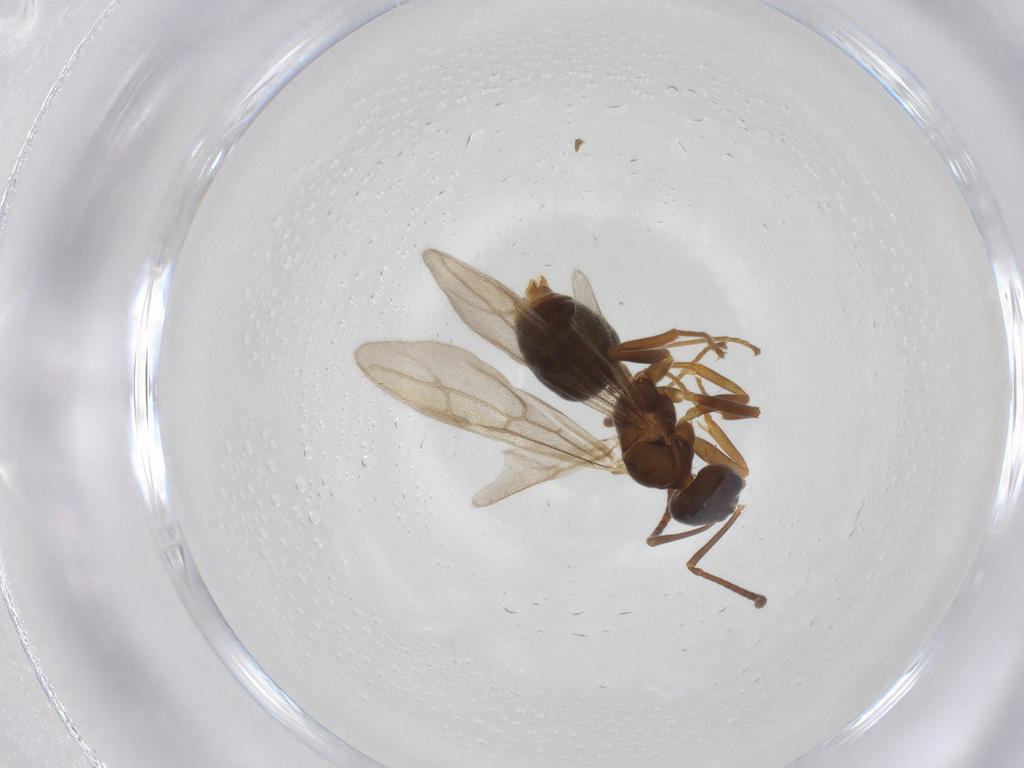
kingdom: Animalia
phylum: Arthropoda
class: Insecta
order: Hymenoptera
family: Formicidae
